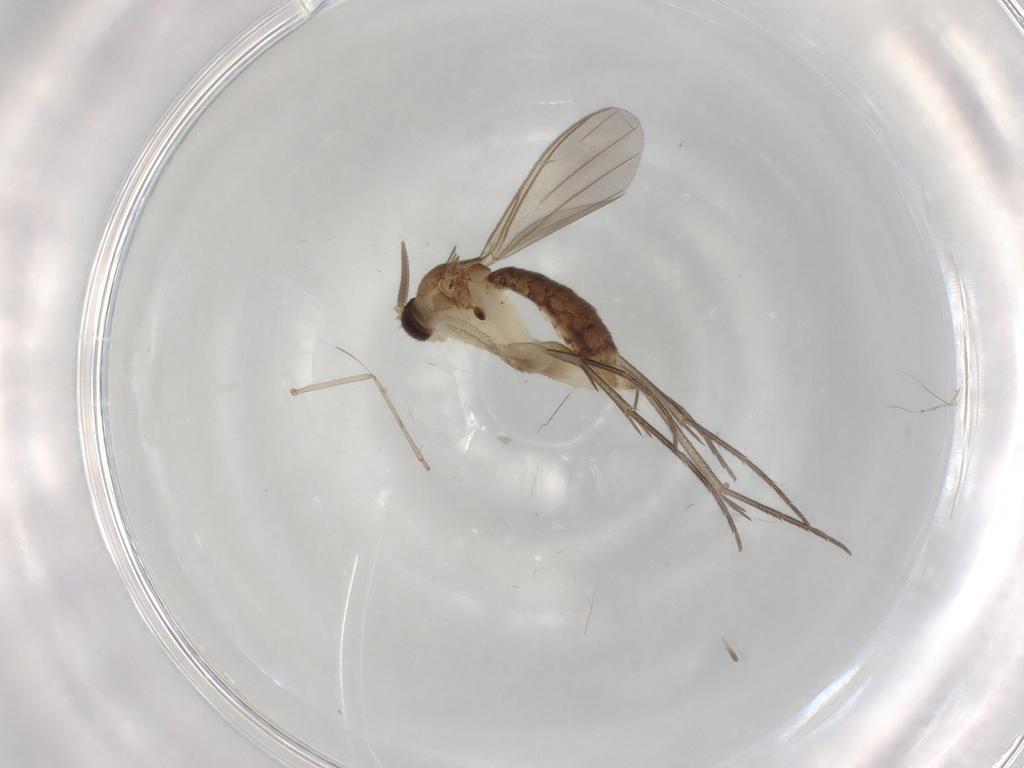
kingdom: Animalia
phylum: Arthropoda
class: Insecta
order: Diptera
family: Mycetophilidae
